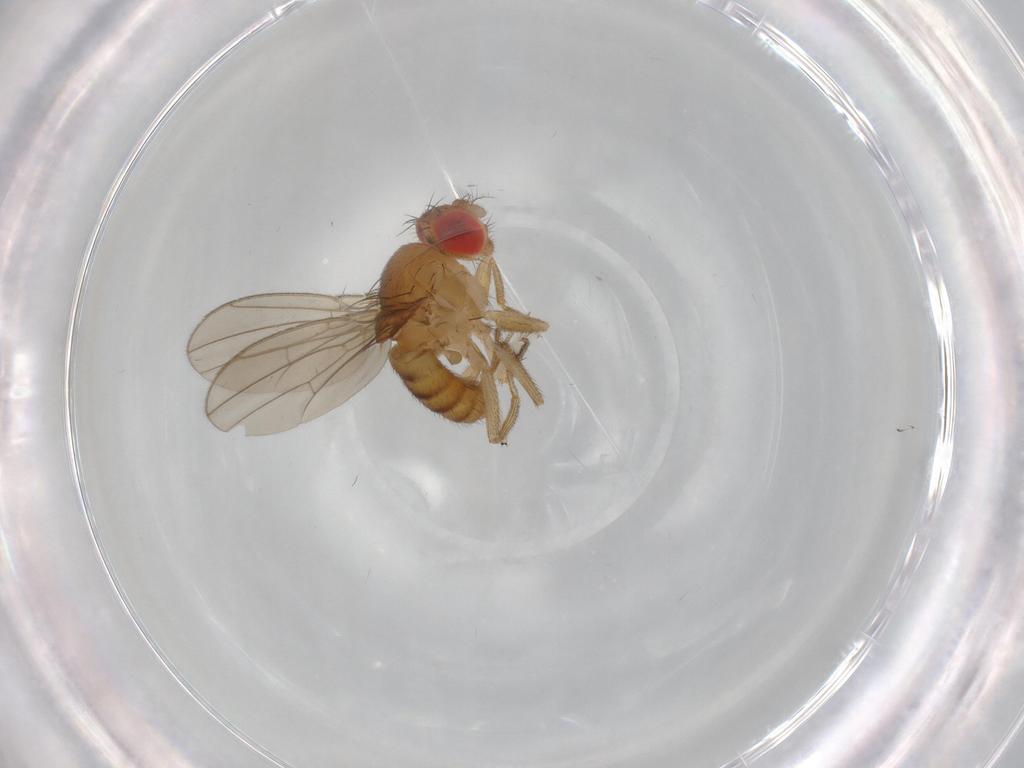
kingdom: Animalia
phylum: Arthropoda
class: Insecta
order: Diptera
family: Drosophilidae
